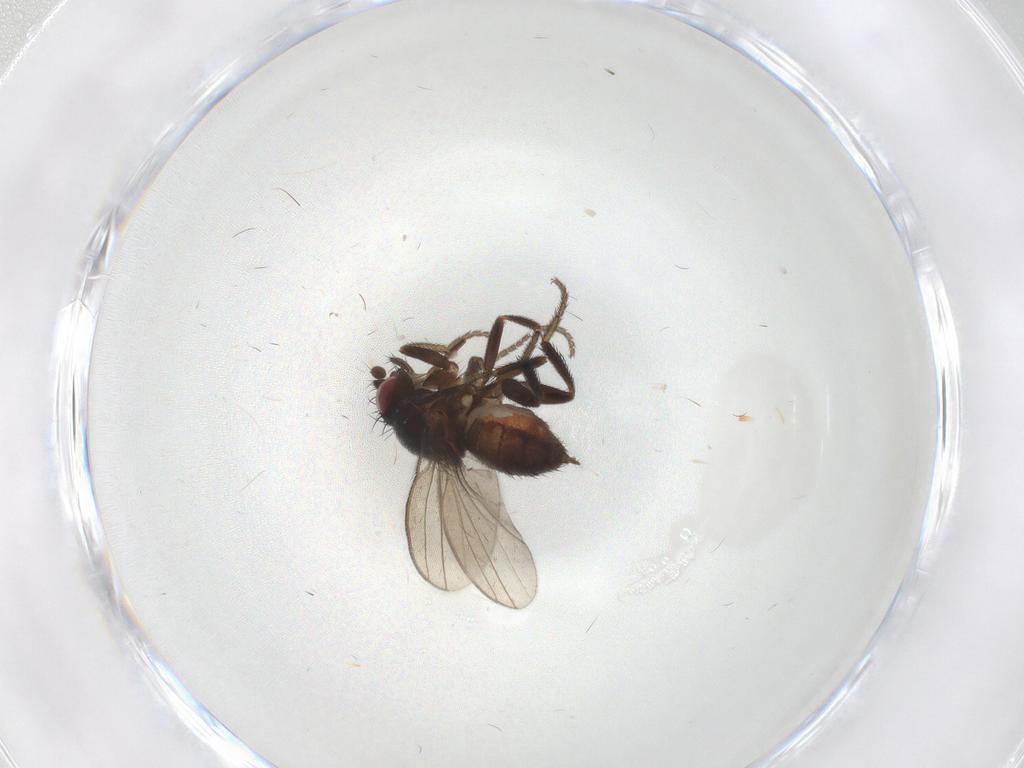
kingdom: Animalia
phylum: Arthropoda
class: Insecta
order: Diptera
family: Milichiidae
